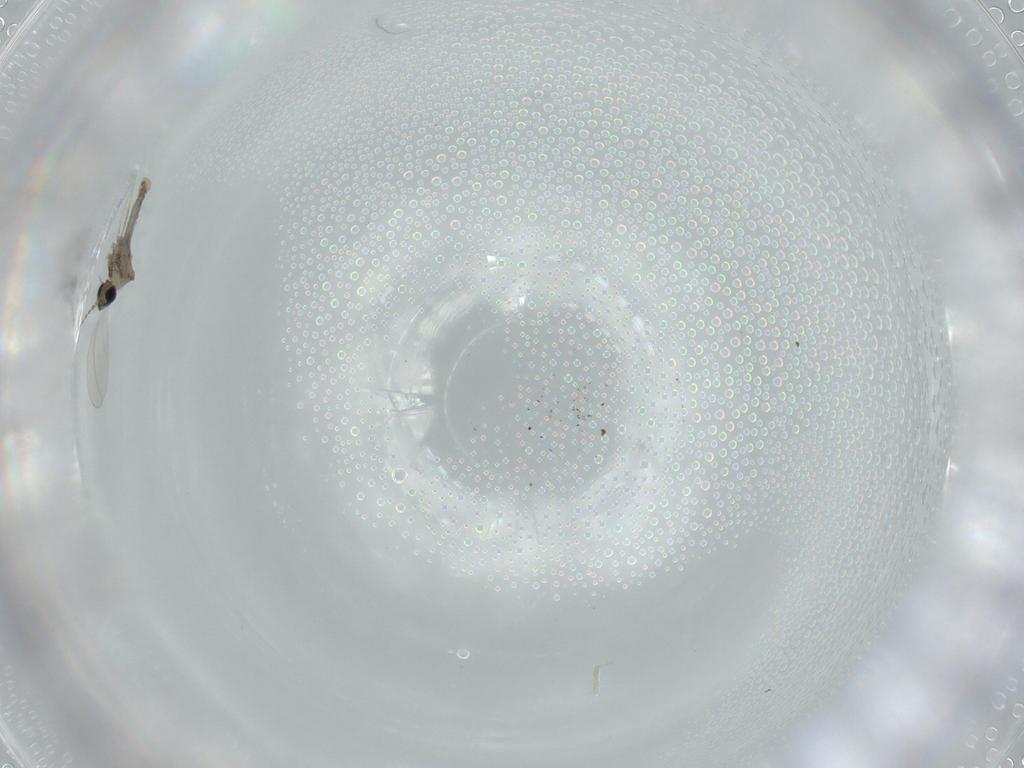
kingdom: Animalia
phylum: Arthropoda
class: Insecta
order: Diptera
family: Cecidomyiidae
